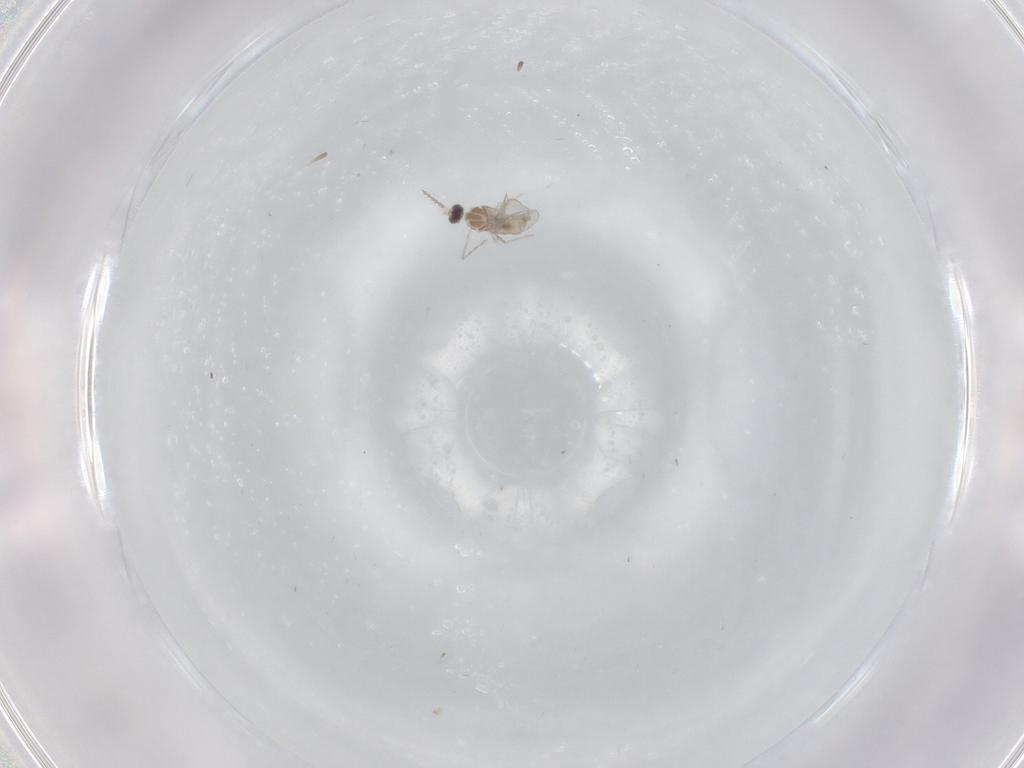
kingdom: Animalia
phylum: Arthropoda
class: Insecta
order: Diptera
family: Cecidomyiidae
